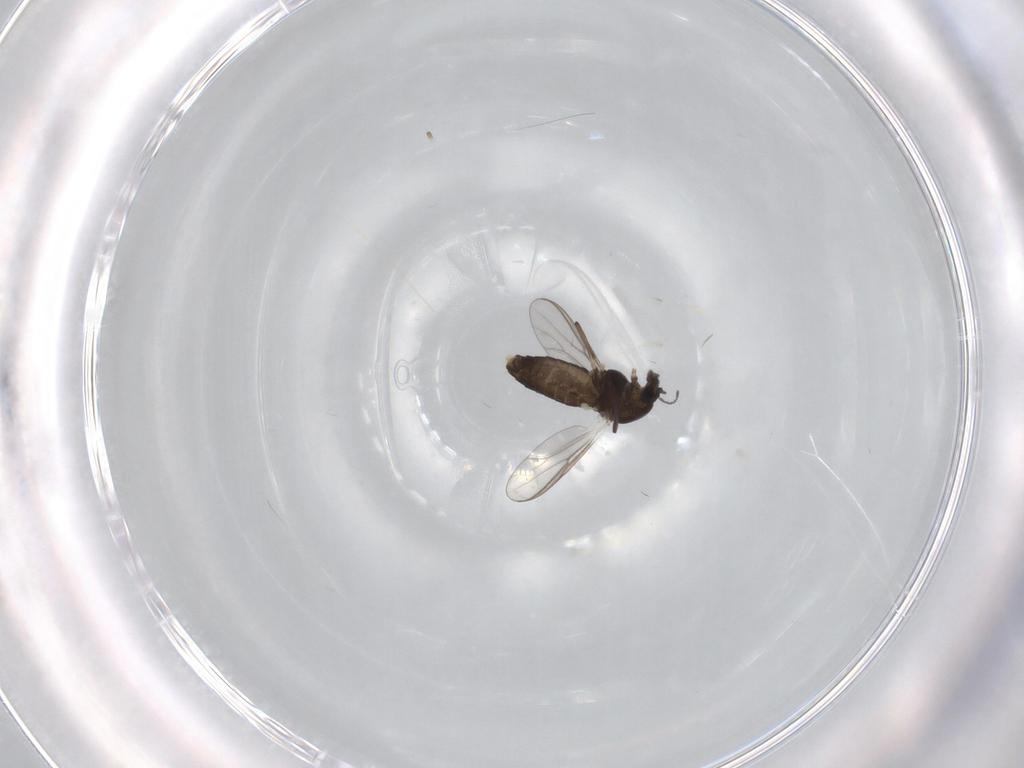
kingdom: Animalia
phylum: Arthropoda
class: Insecta
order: Diptera
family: Chironomidae
